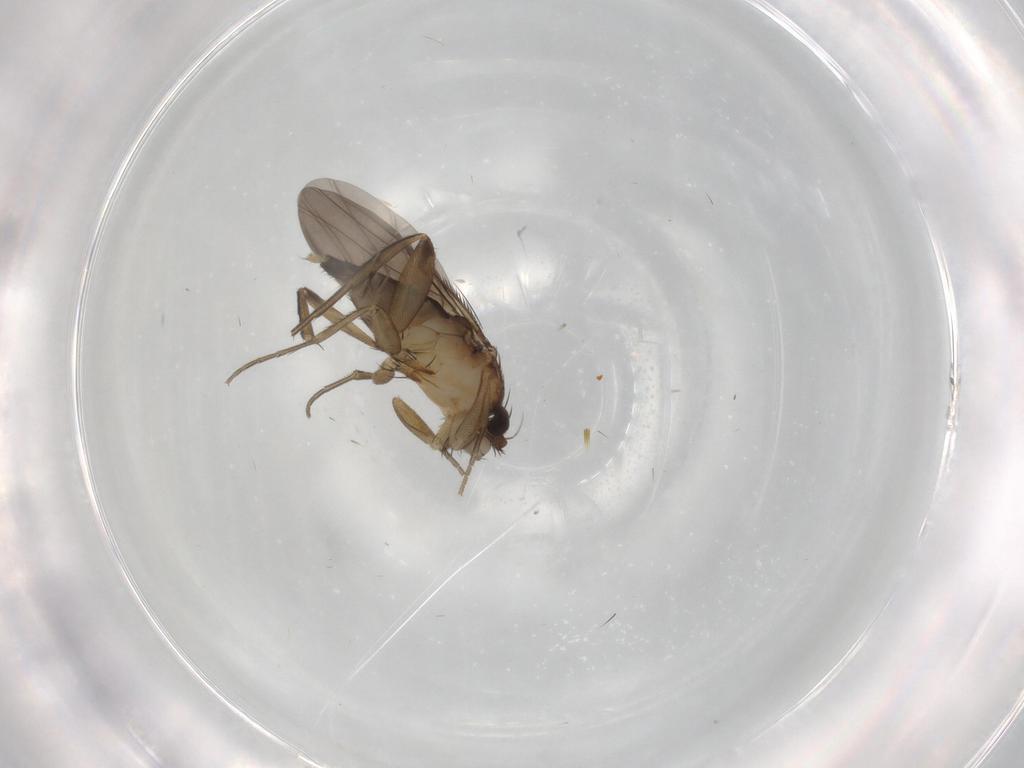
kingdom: Animalia
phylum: Arthropoda
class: Insecta
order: Diptera
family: Phoridae
